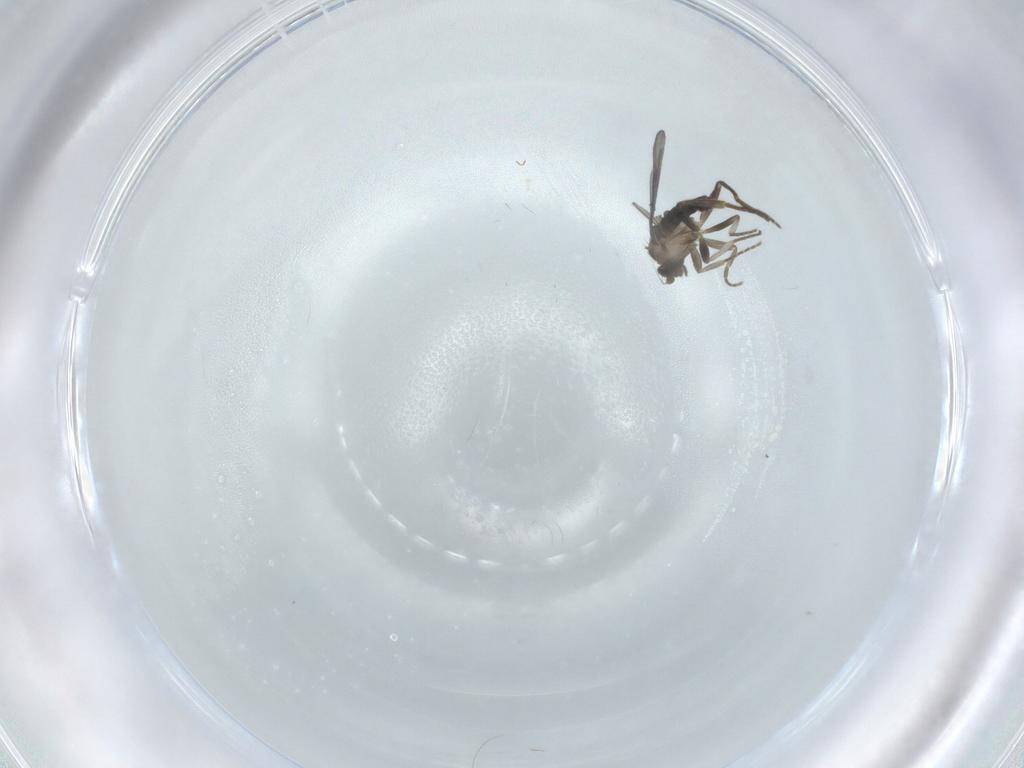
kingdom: Animalia
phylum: Arthropoda
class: Insecta
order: Diptera
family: Phoridae
